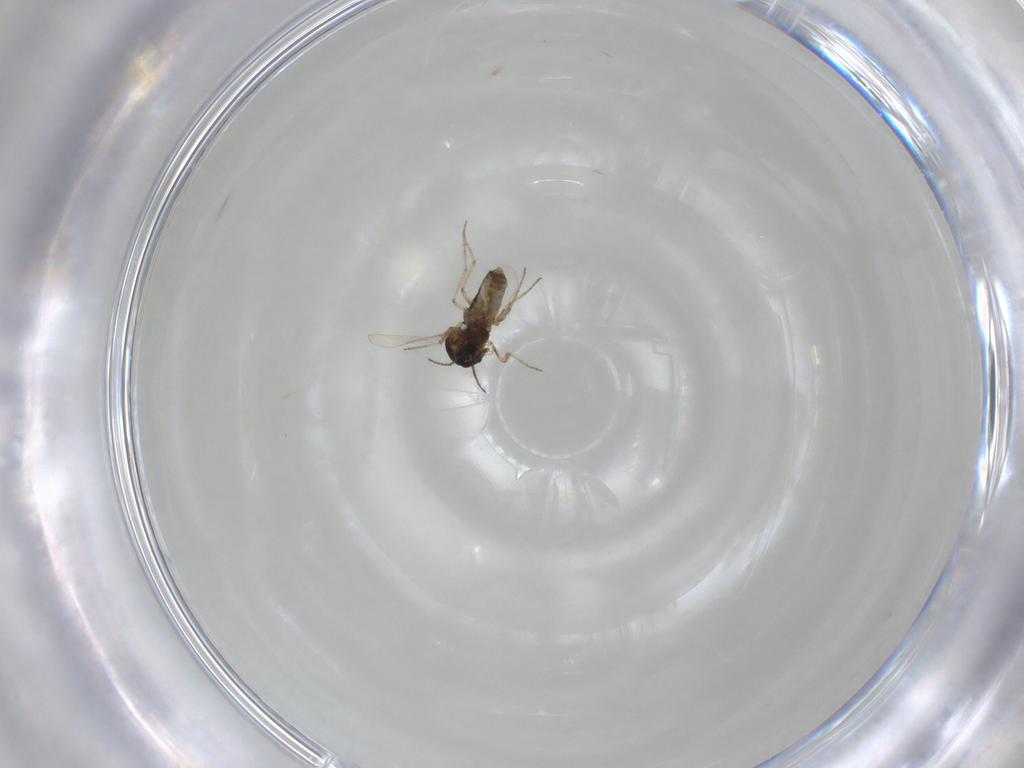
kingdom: Animalia
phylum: Arthropoda
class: Insecta
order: Diptera
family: Ceratopogonidae
